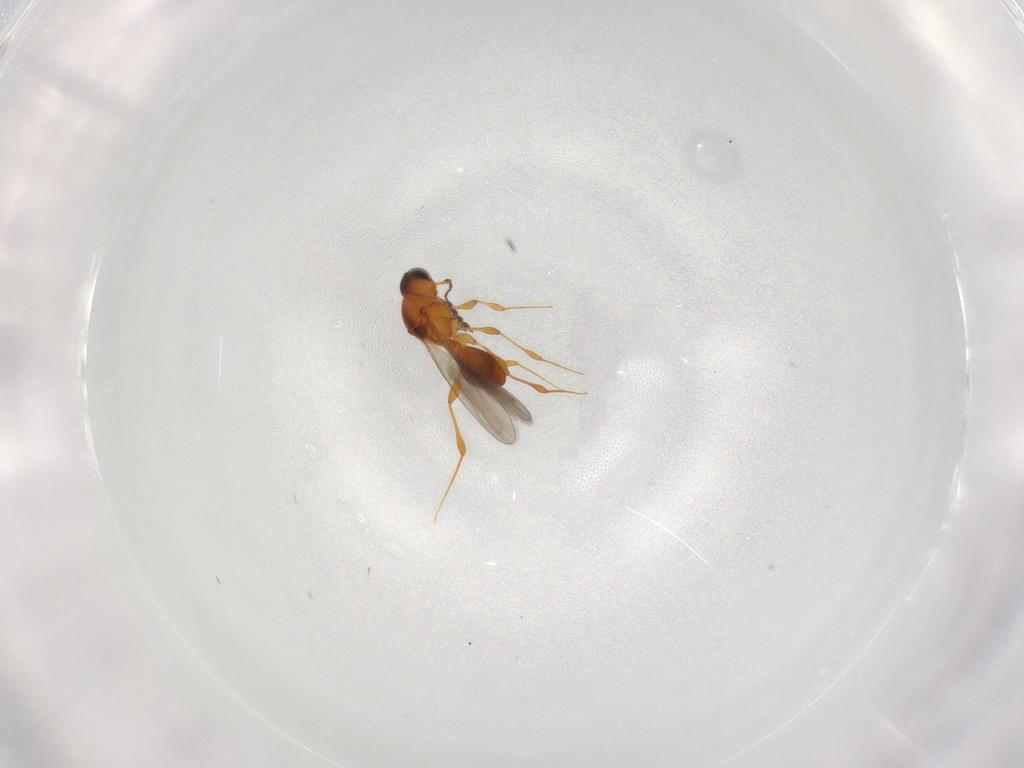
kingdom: Animalia
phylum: Arthropoda
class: Insecta
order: Hymenoptera
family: Platygastridae
